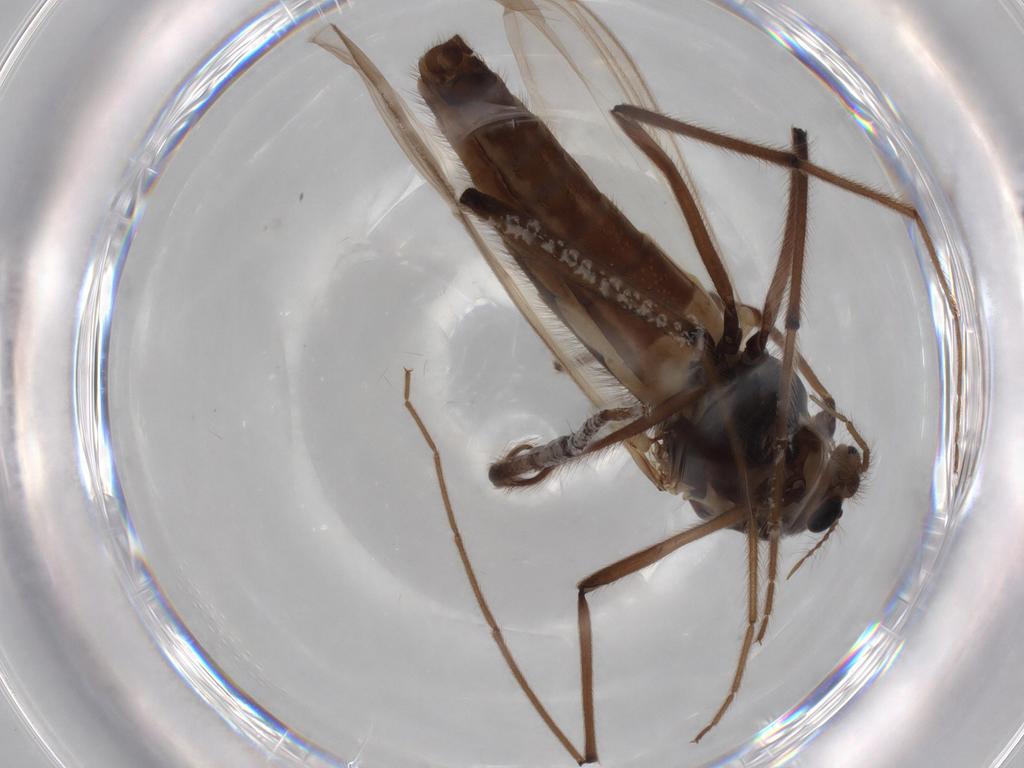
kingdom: Animalia
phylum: Arthropoda
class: Insecta
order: Diptera
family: Chironomidae
